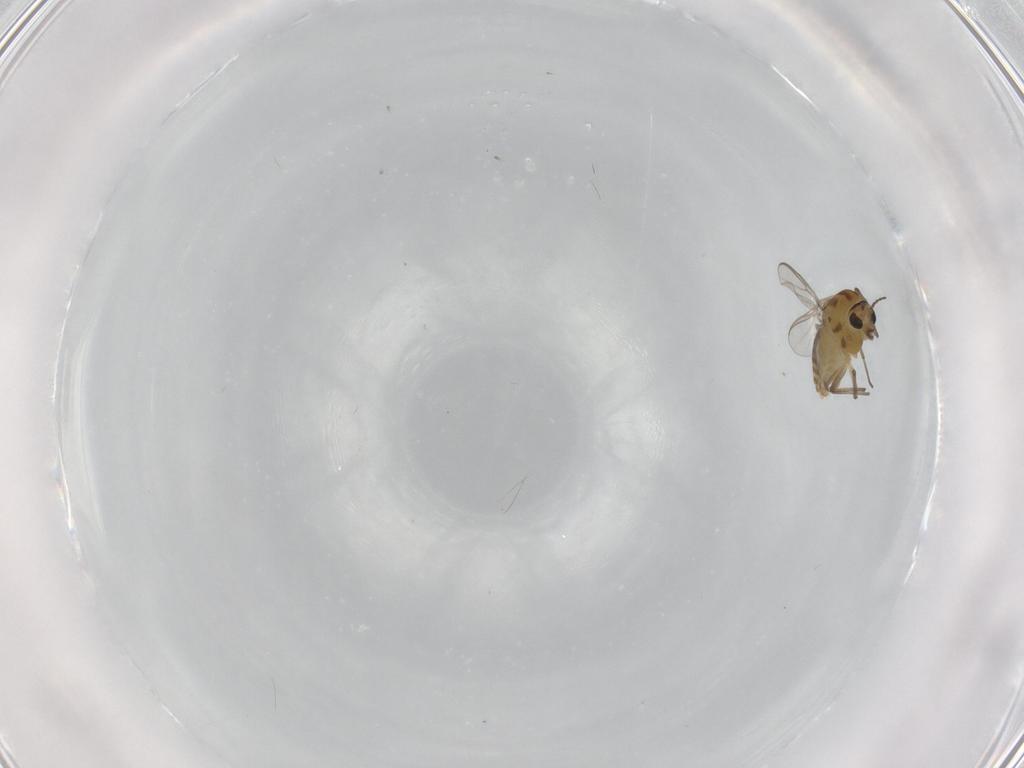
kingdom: Animalia
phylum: Arthropoda
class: Insecta
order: Diptera
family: Chironomidae
